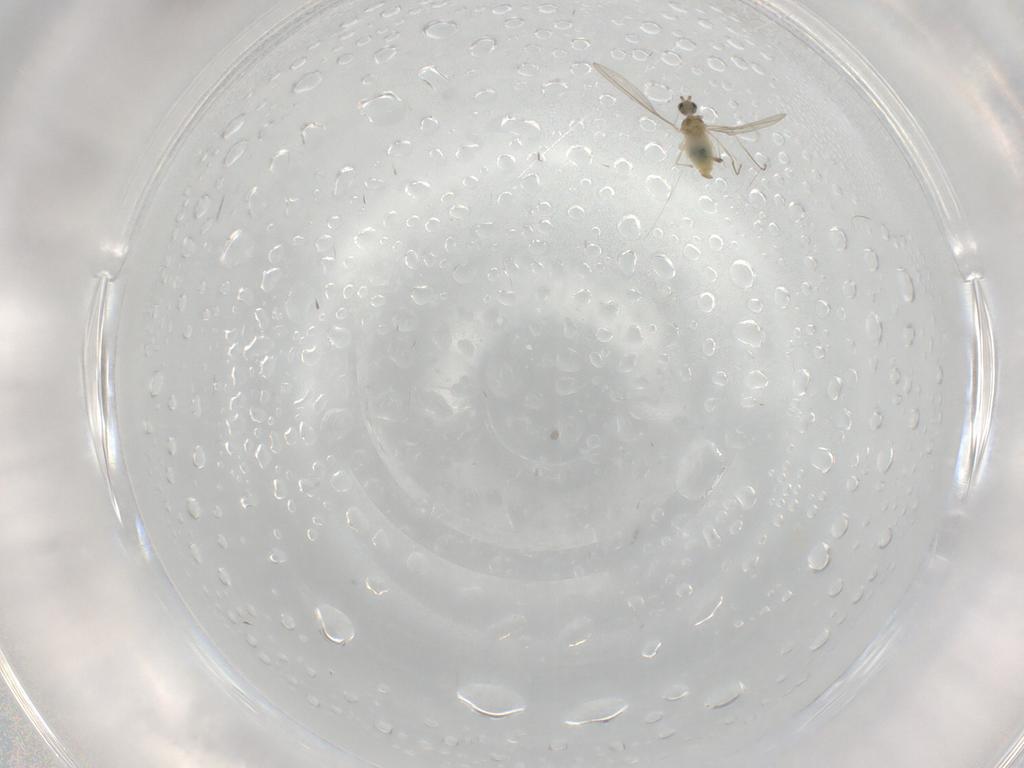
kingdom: Animalia
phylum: Arthropoda
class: Insecta
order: Diptera
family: Cecidomyiidae
